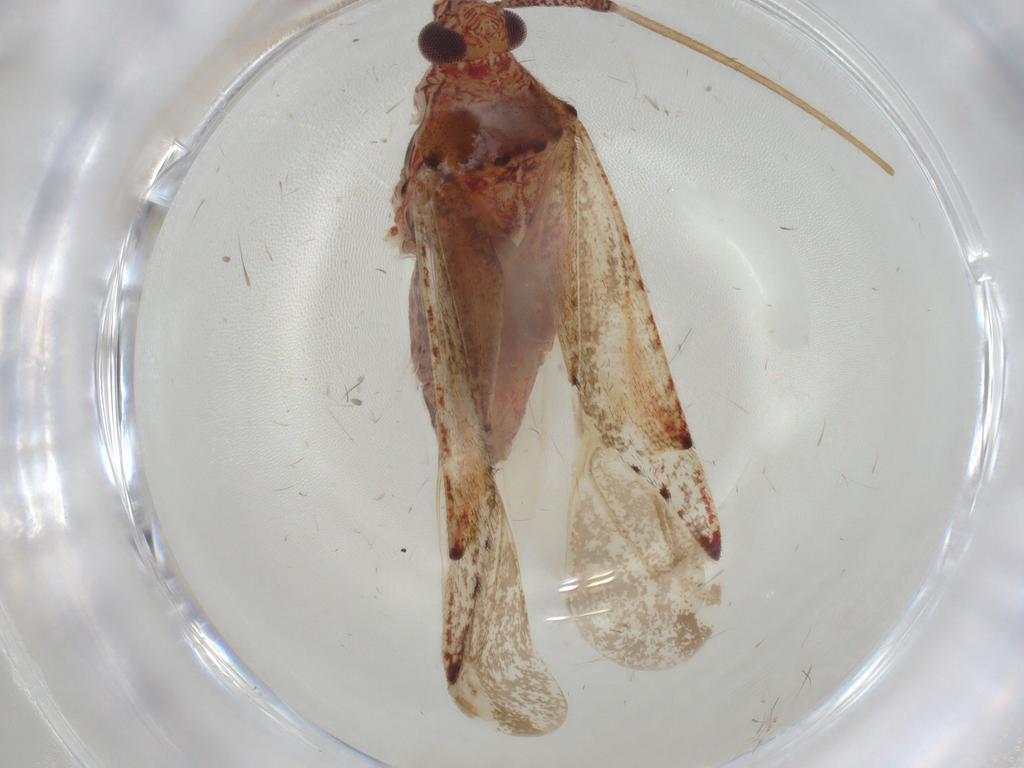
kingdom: Animalia
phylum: Arthropoda
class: Insecta
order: Hemiptera
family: Miridae
